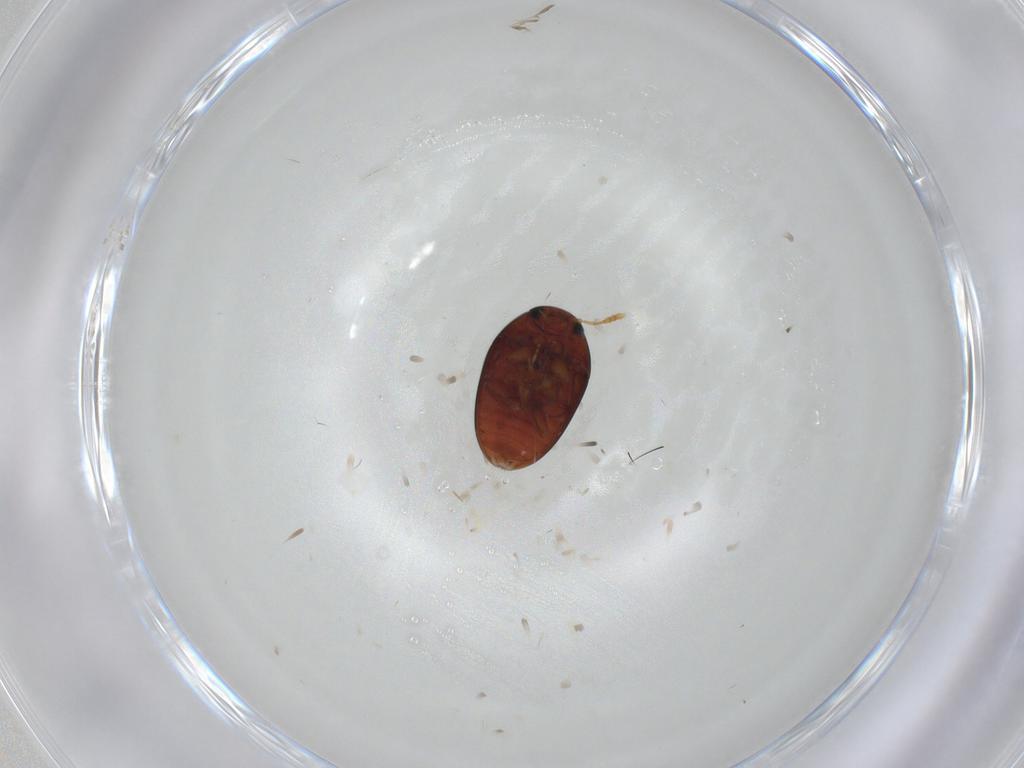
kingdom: Animalia
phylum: Arthropoda
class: Insecta
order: Coleoptera
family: Phalacridae
